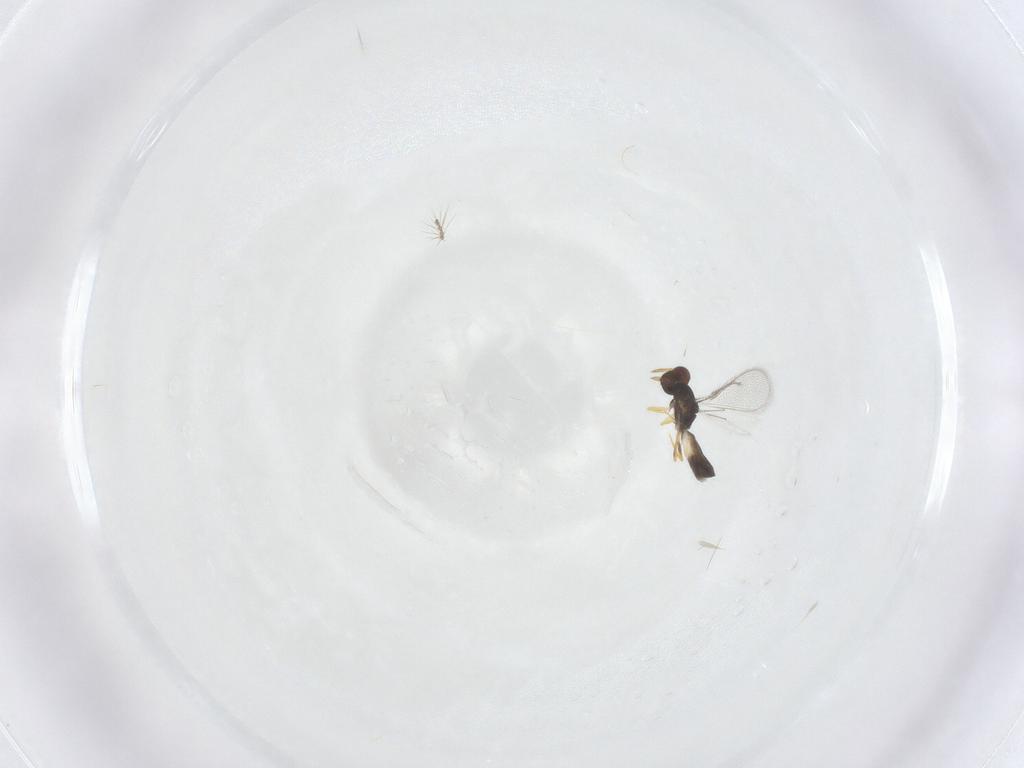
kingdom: Animalia
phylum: Arthropoda
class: Insecta
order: Hymenoptera
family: Eulophidae
